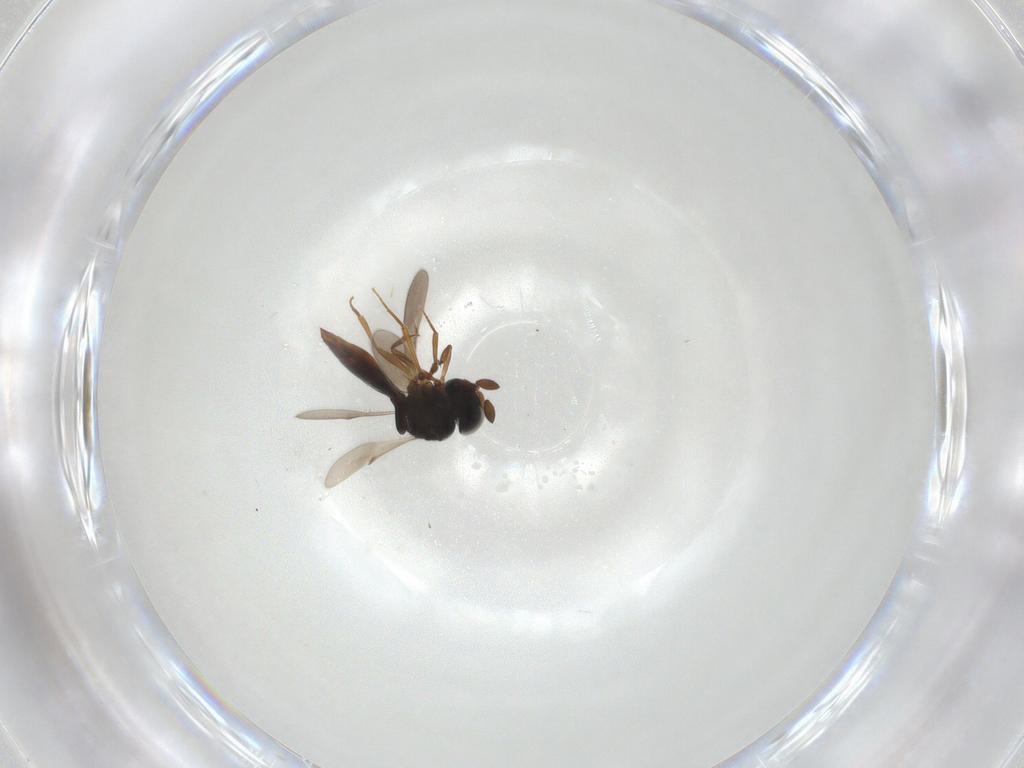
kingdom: Animalia
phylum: Arthropoda
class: Insecta
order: Hymenoptera
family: Scelionidae
